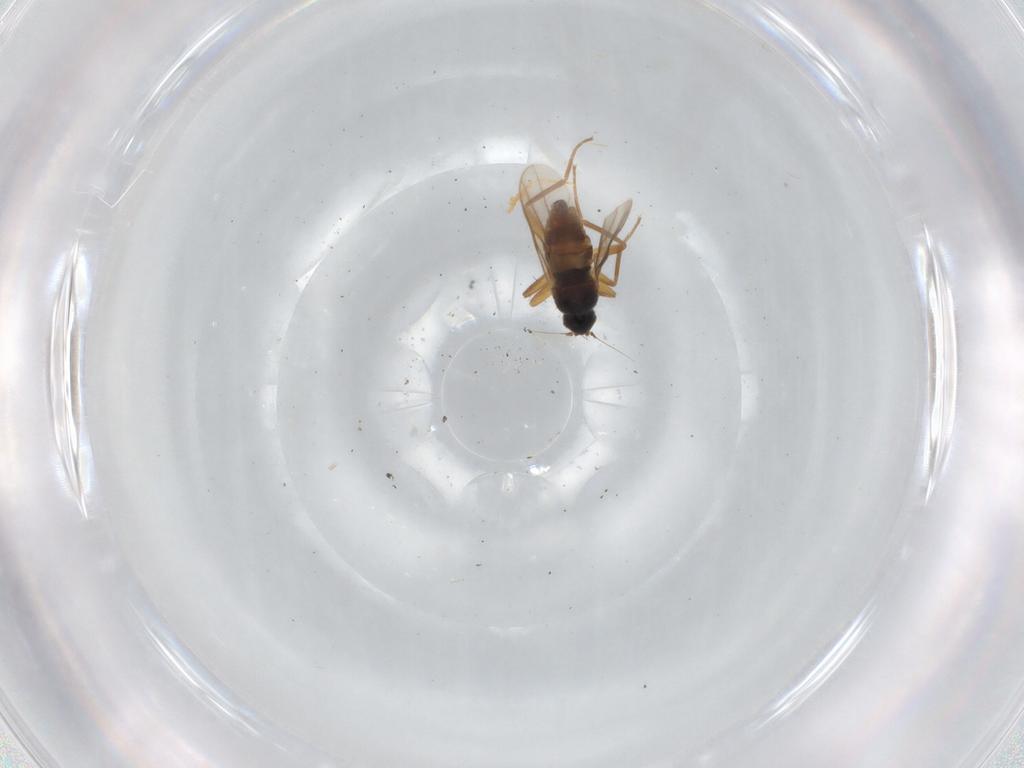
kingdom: Animalia
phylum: Arthropoda
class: Insecta
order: Diptera
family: Hybotidae
